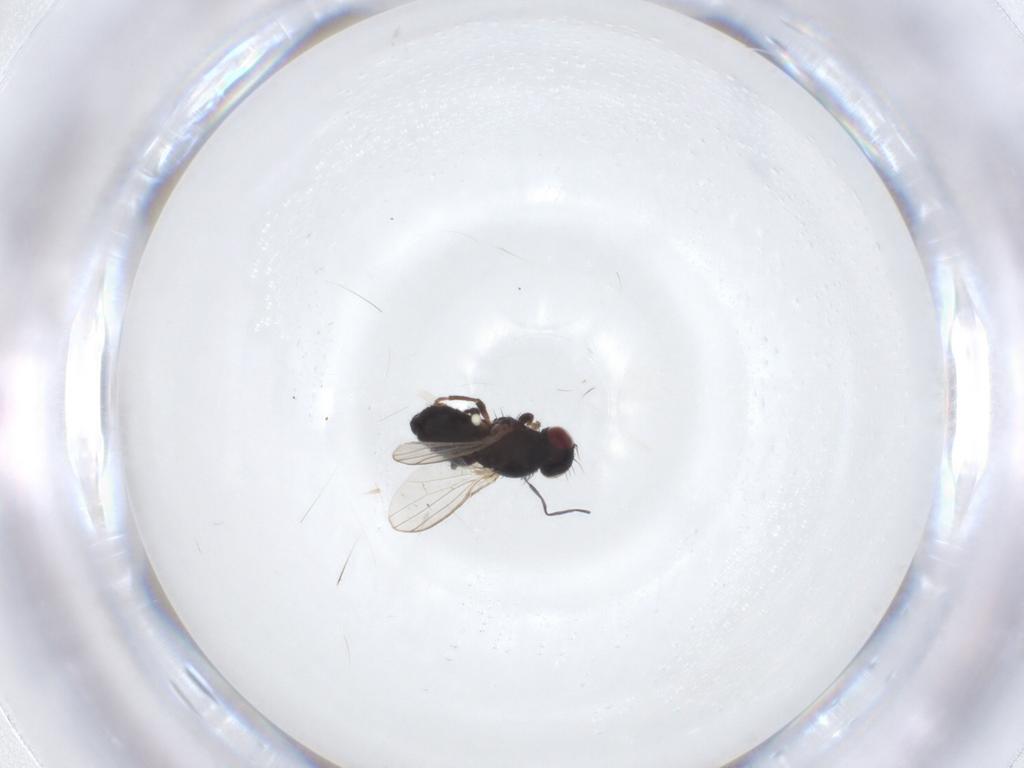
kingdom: Animalia
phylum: Arthropoda
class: Insecta
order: Diptera
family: Carnidae
